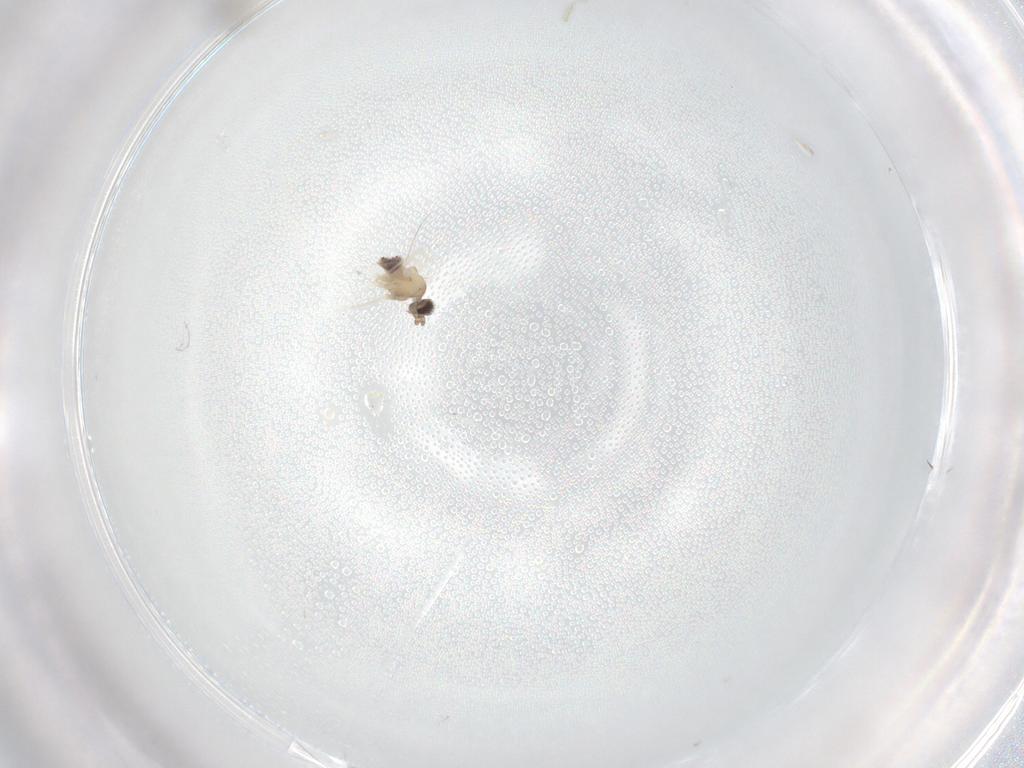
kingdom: Animalia
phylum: Arthropoda
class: Insecta
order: Diptera
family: Cecidomyiidae
